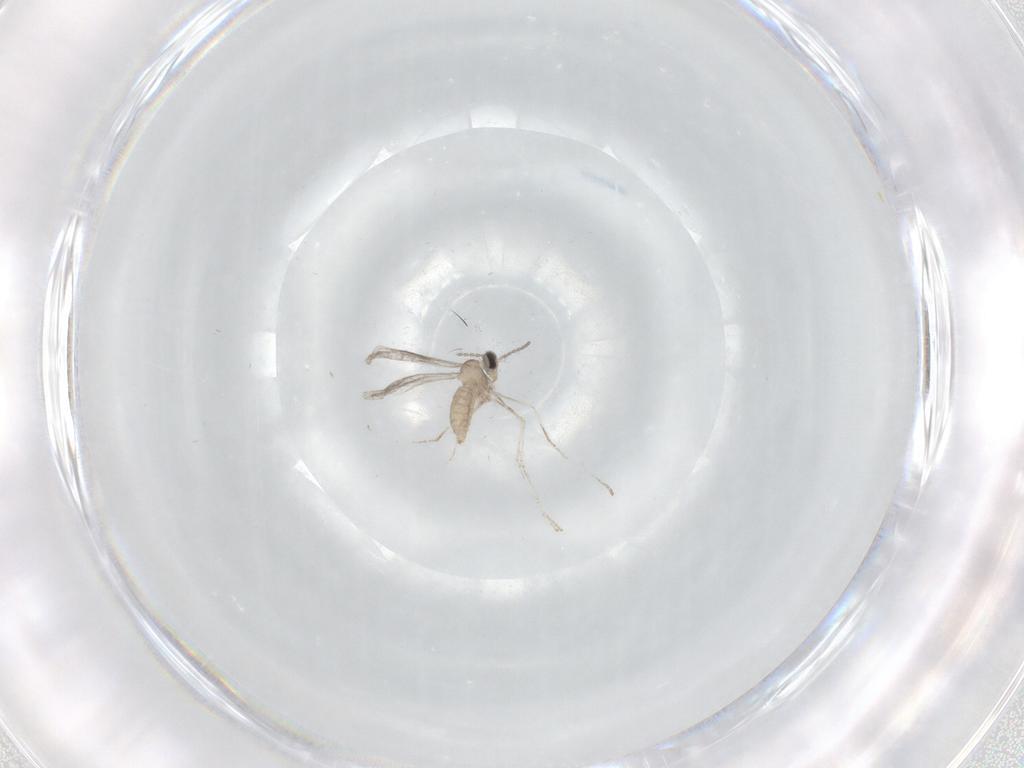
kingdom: Animalia
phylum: Arthropoda
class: Insecta
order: Diptera
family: Cecidomyiidae
